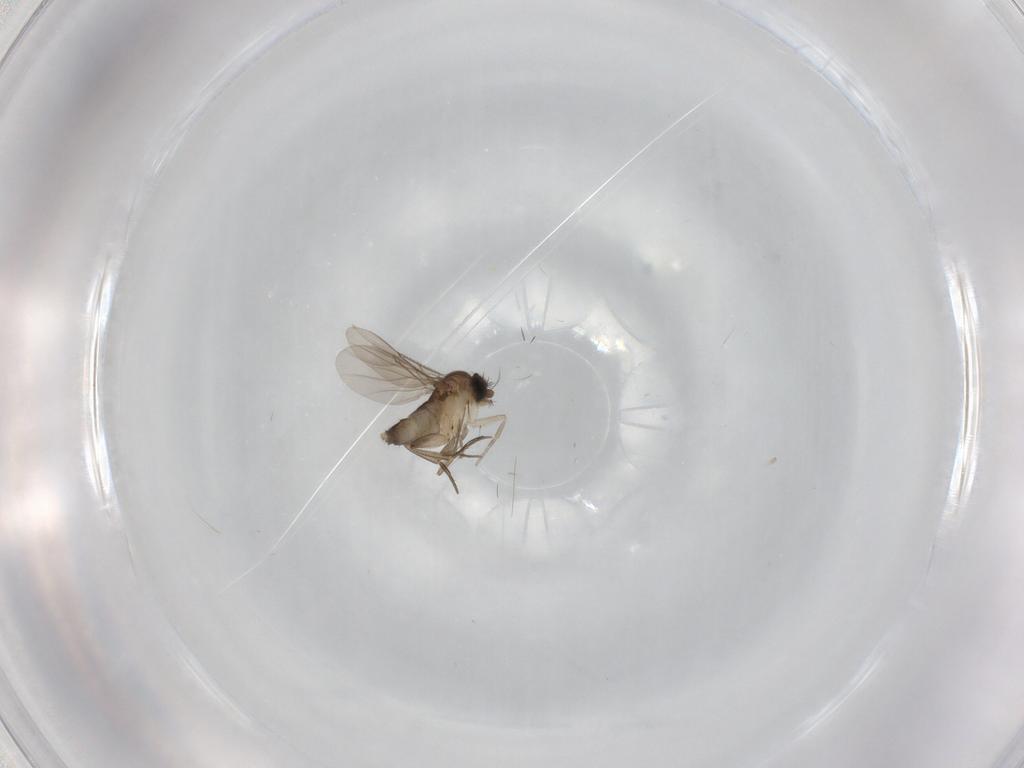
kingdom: Animalia
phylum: Arthropoda
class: Insecta
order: Diptera
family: Phoridae
